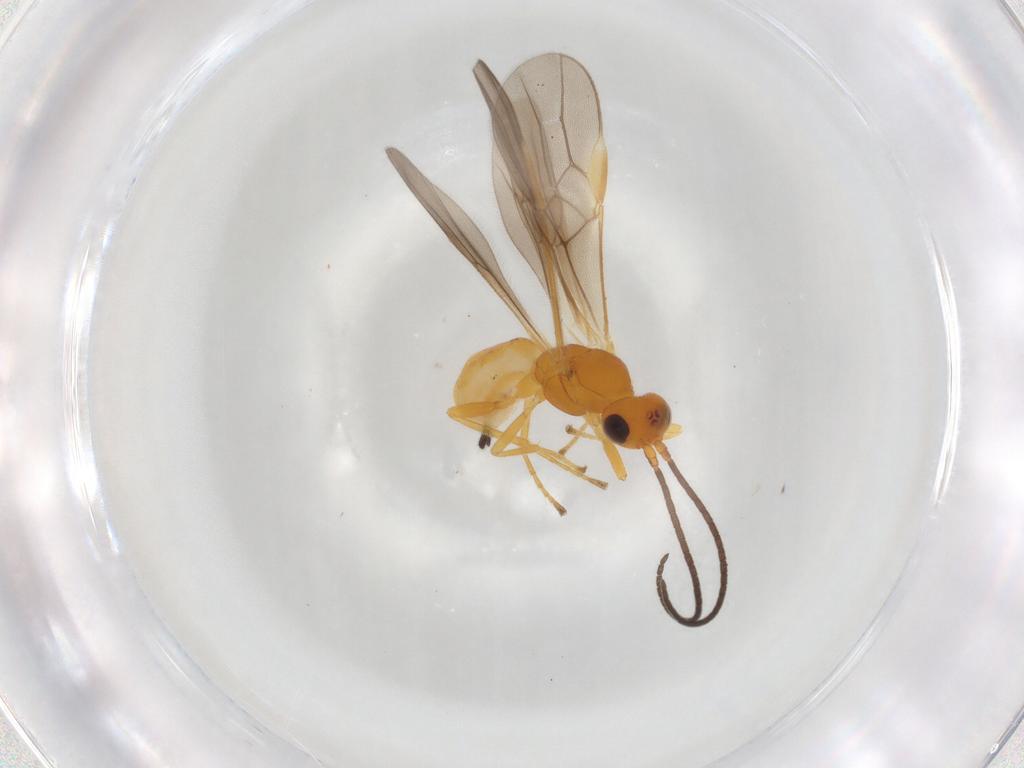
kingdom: Animalia
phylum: Arthropoda
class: Insecta
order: Hymenoptera
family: Braconidae
